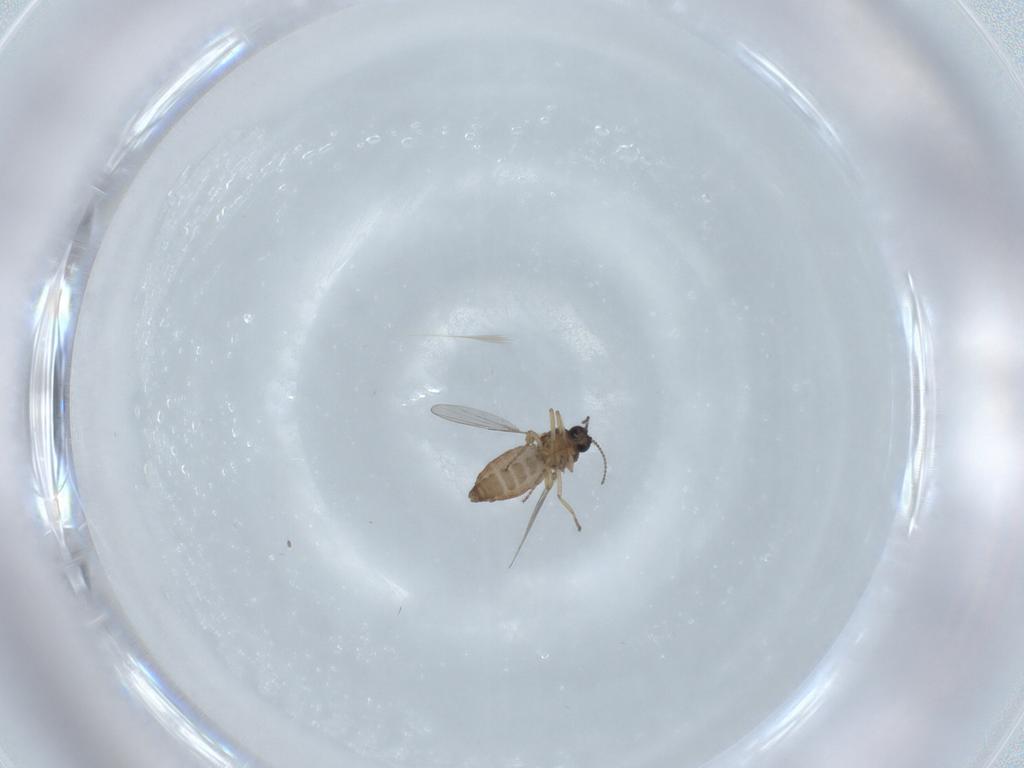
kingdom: Animalia
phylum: Arthropoda
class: Insecta
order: Diptera
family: Ceratopogonidae
